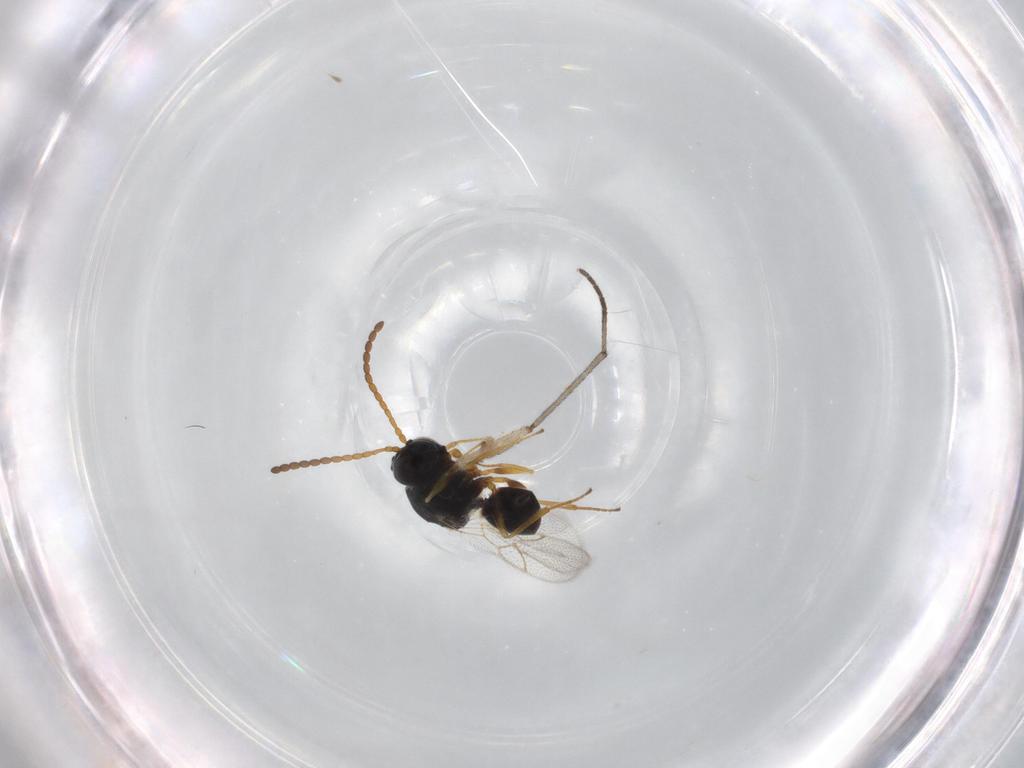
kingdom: Animalia
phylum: Arthropoda
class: Insecta
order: Hymenoptera
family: Figitidae
